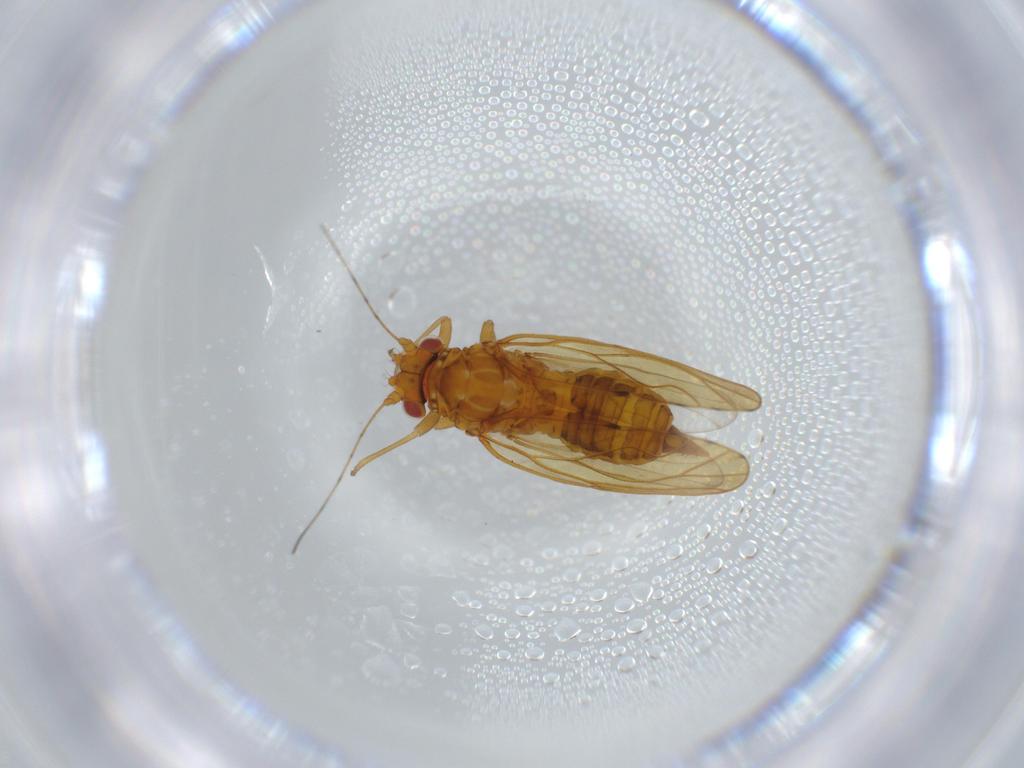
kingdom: Animalia
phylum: Arthropoda
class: Insecta
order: Hemiptera
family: Psylloidea_incertae_sedis
